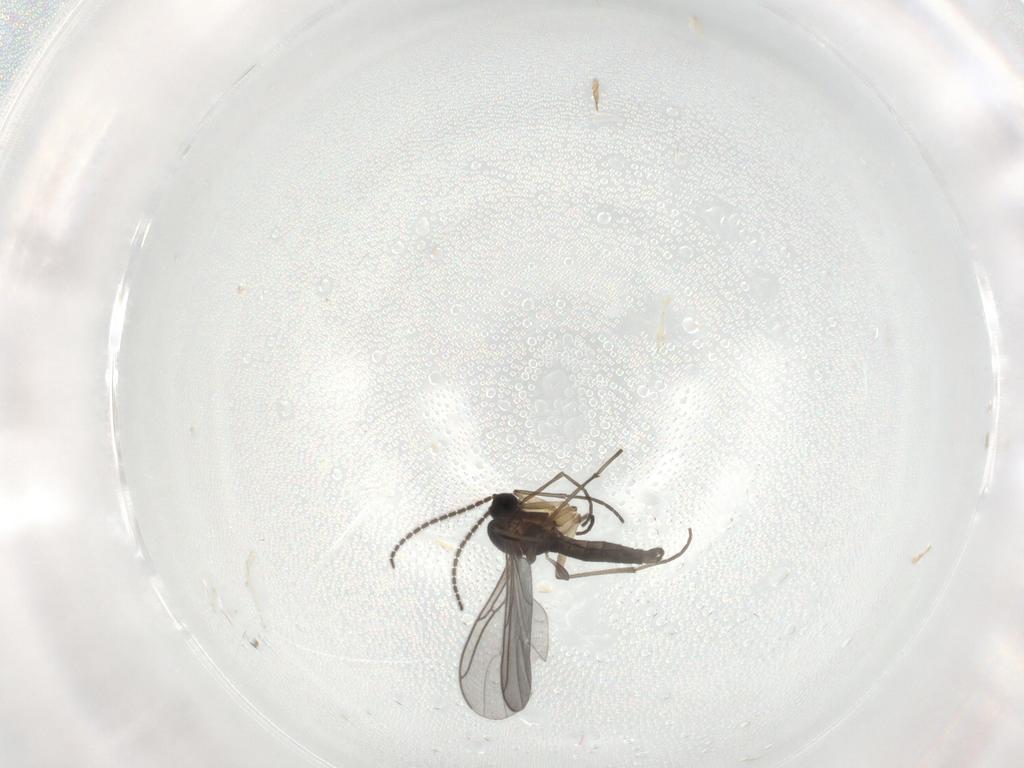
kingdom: Animalia
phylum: Arthropoda
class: Insecta
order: Diptera
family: Sciaridae
